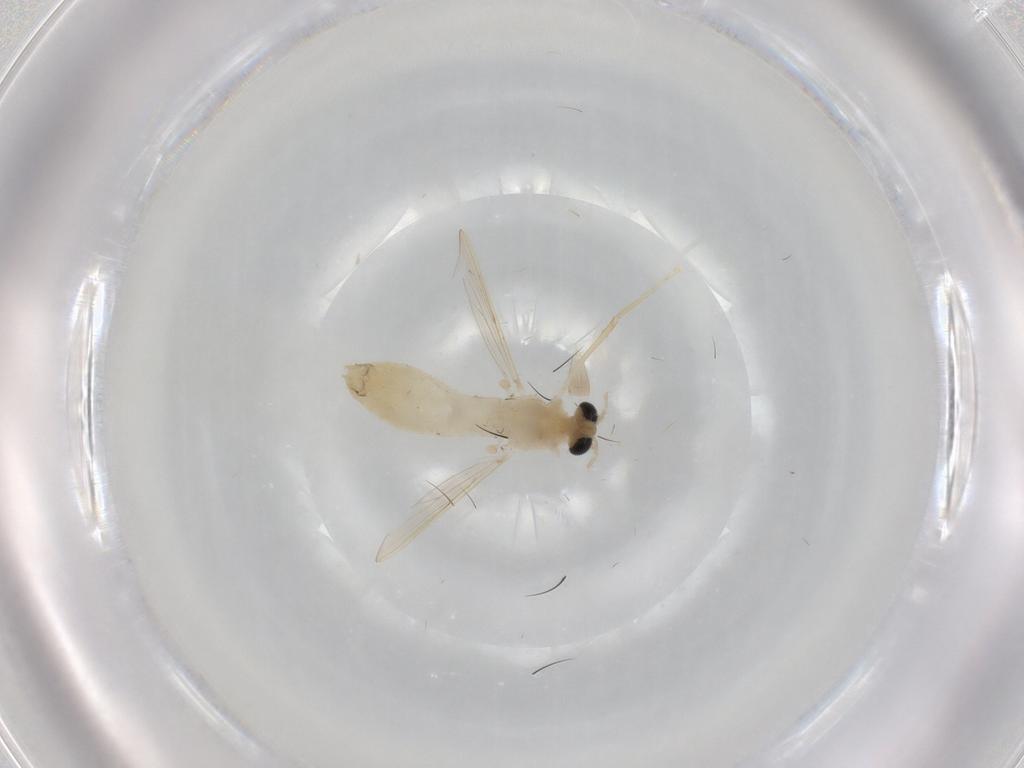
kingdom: Animalia
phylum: Arthropoda
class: Insecta
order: Diptera
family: Chironomidae
